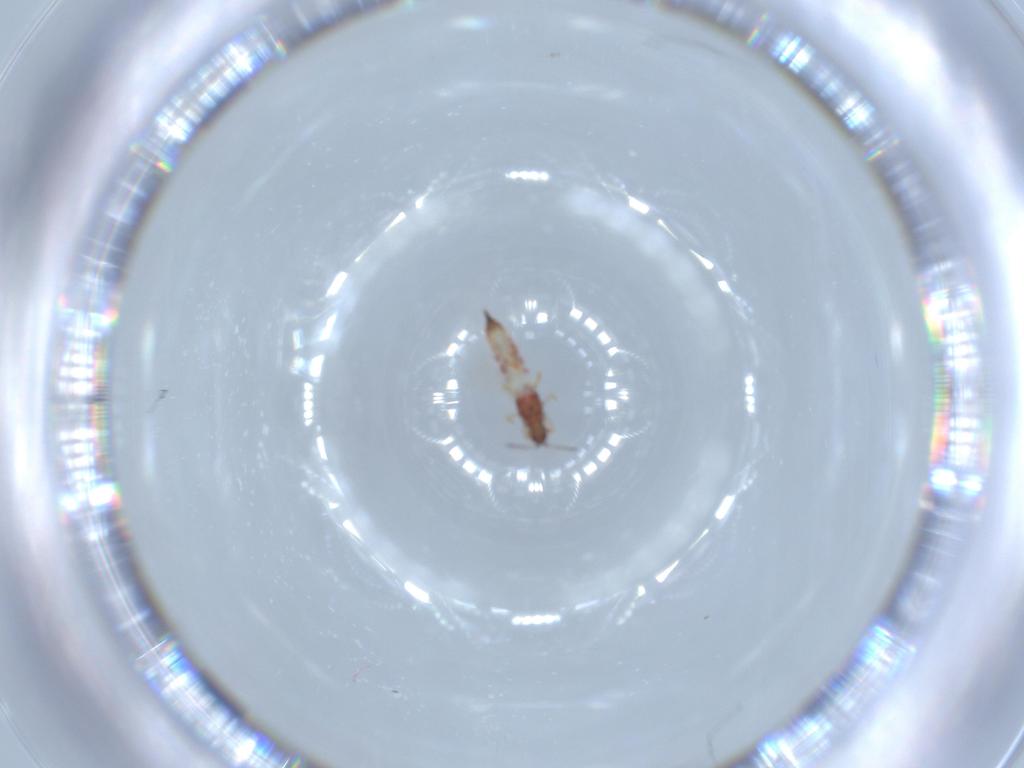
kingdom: Animalia
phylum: Arthropoda
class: Insecta
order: Thysanoptera
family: Phlaeothripidae
